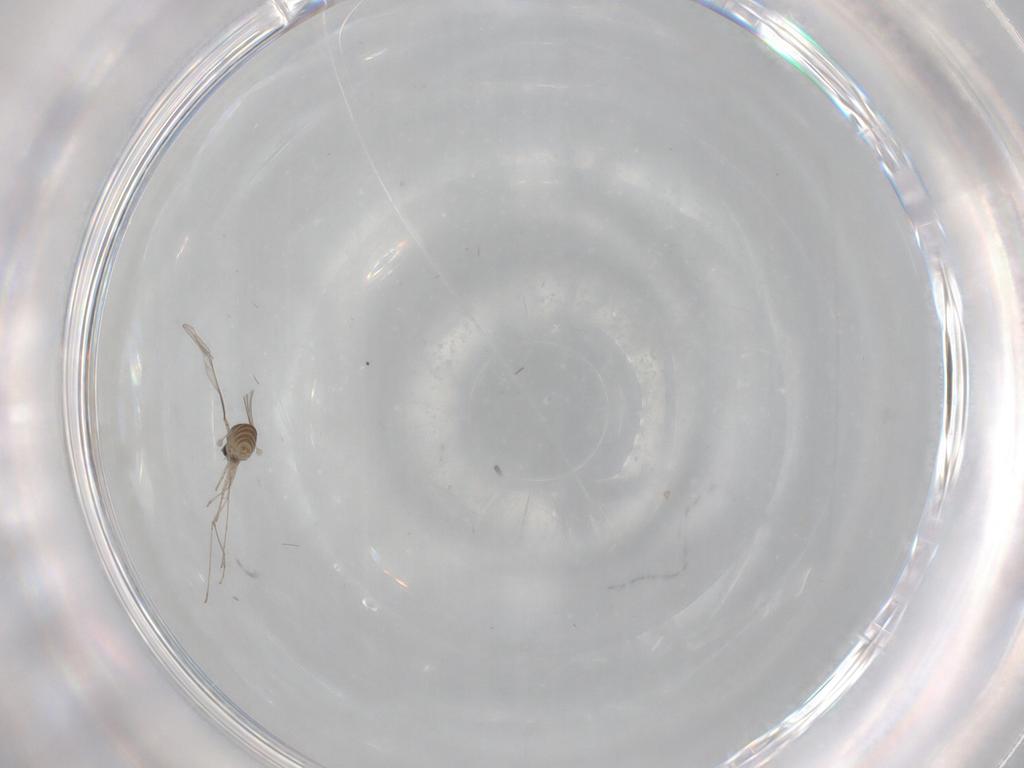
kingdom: Animalia
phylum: Arthropoda
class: Insecta
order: Diptera
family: Cecidomyiidae
